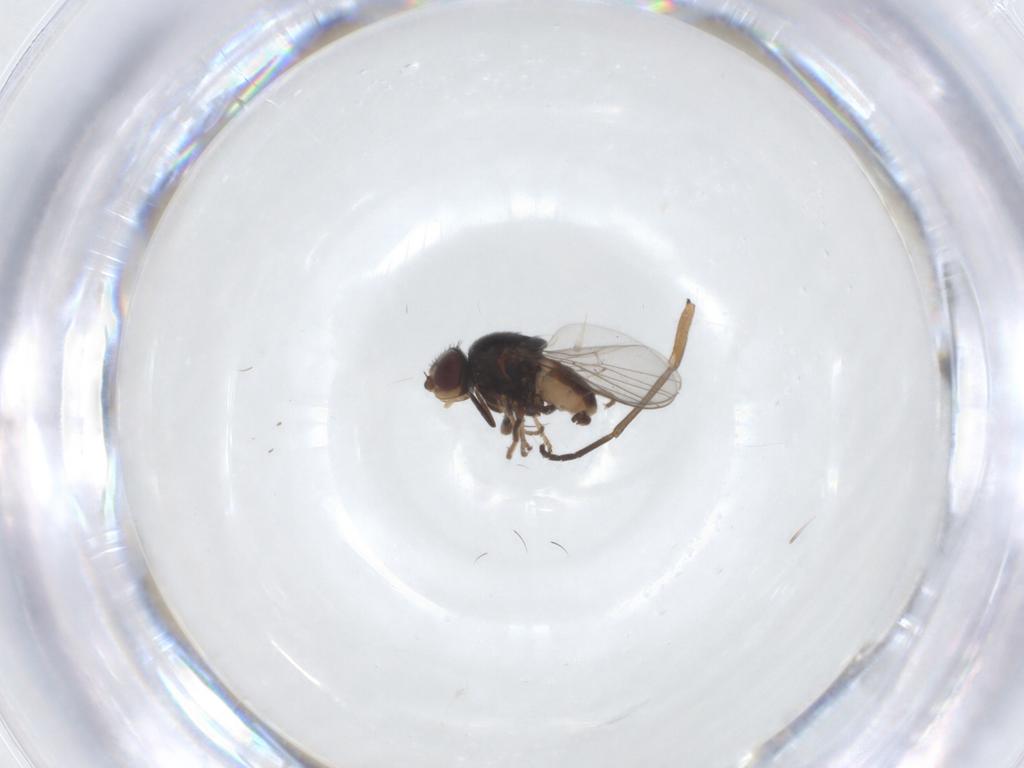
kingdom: Animalia
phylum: Arthropoda
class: Insecta
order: Diptera
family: Chloropidae
